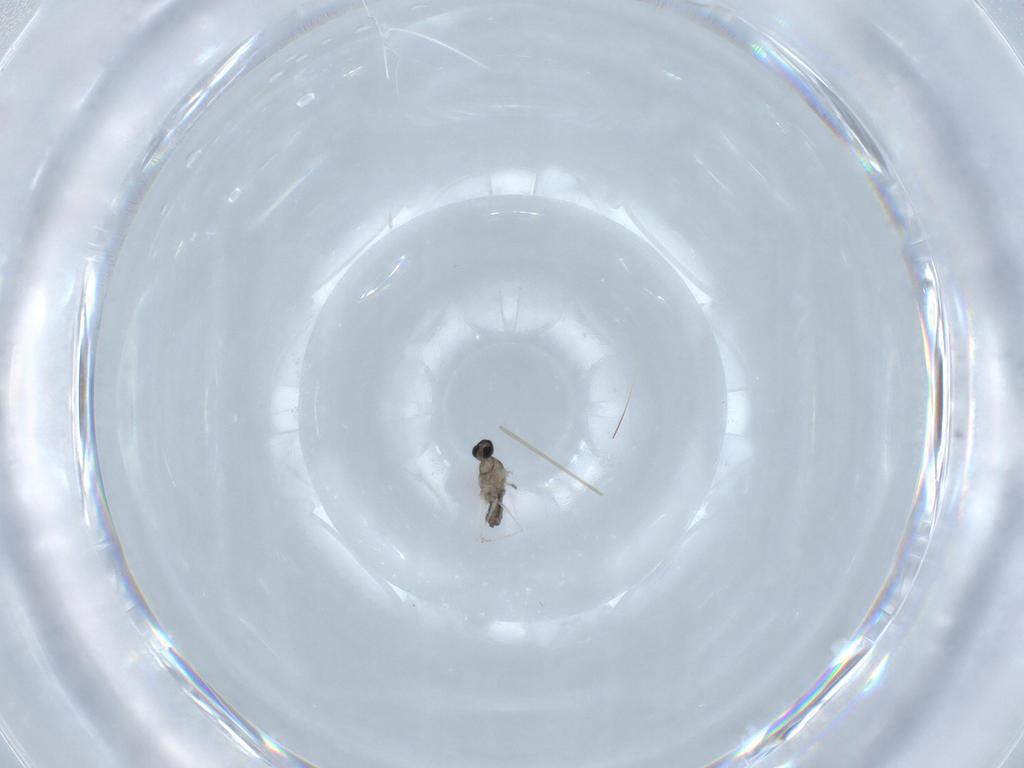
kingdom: Animalia
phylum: Arthropoda
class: Insecta
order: Diptera
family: Cecidomyiidae
